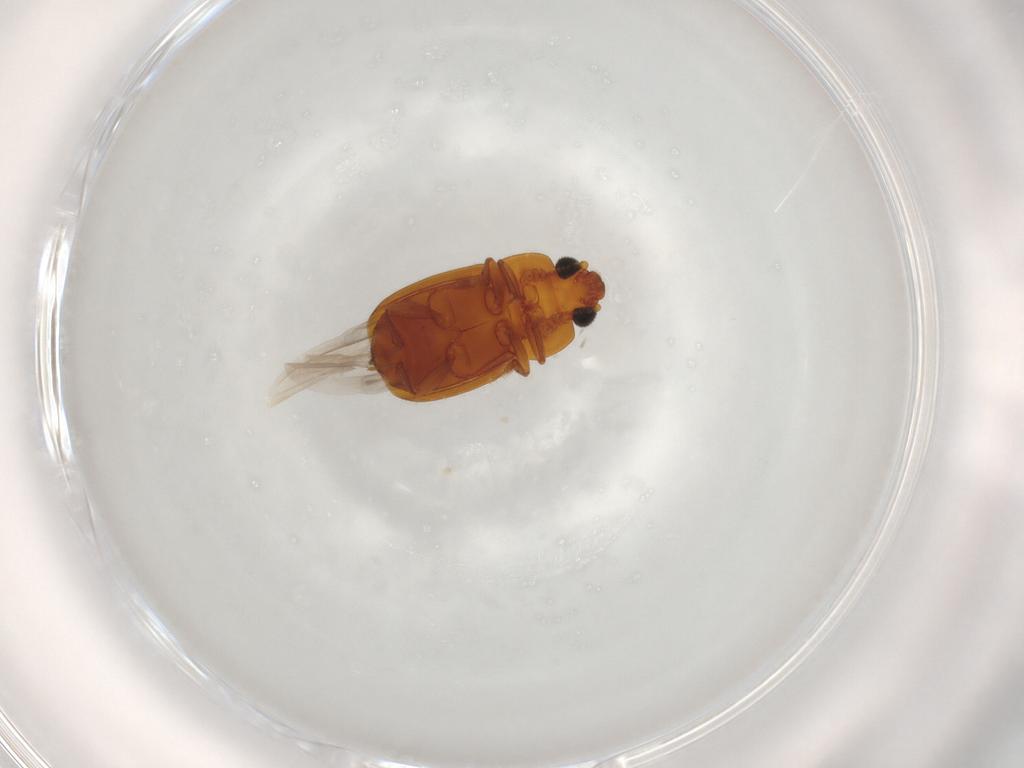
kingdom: Animalia
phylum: Arthropoda
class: Insecta
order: Coleoptera
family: Nitidulidae
